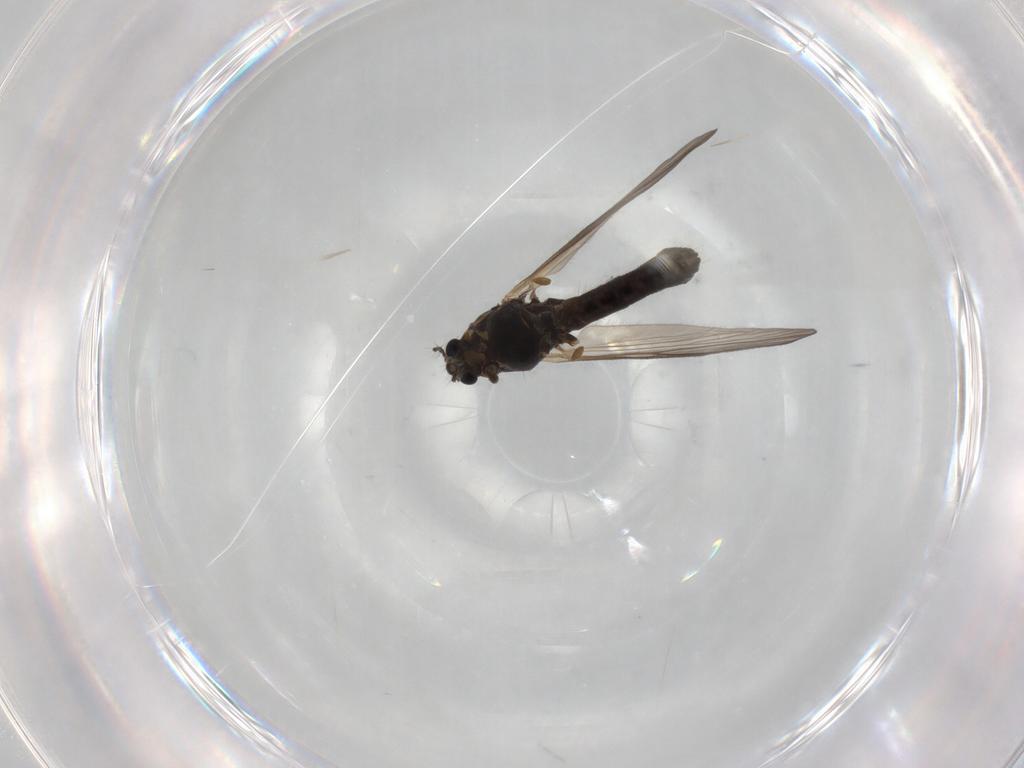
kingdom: Animalia
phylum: Arthropoda
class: Insecta
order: Diptera
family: Chironomidae
